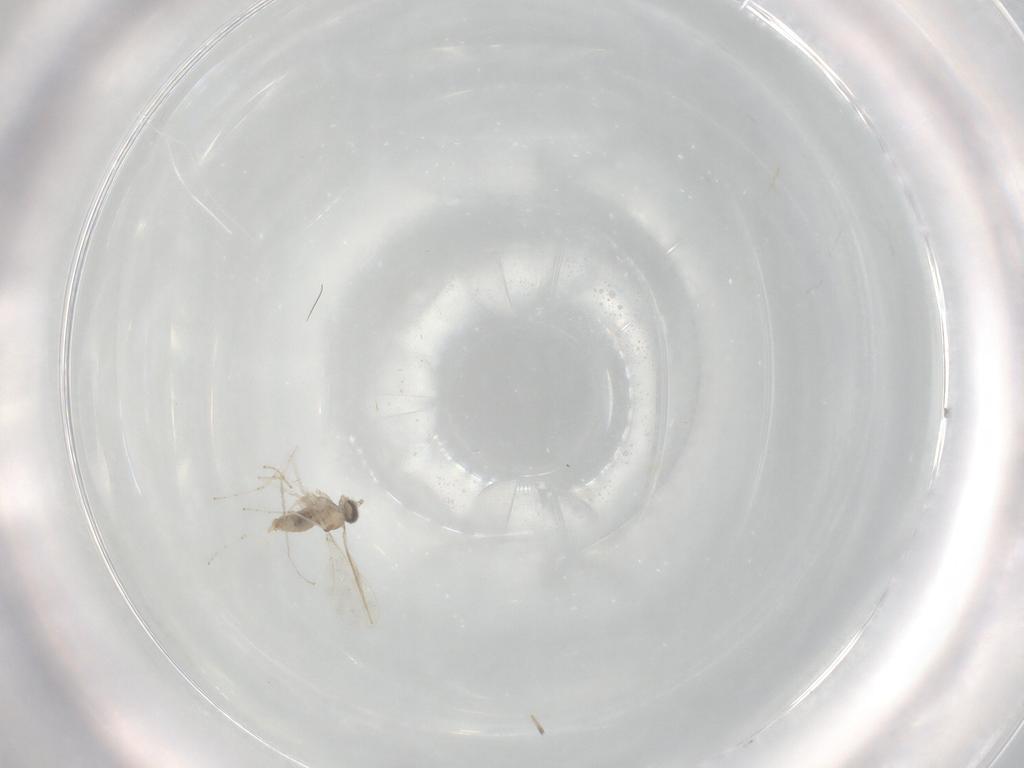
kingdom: Animalia
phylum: Arthropoda
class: Insecta
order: Diptera
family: Cecidomyiidae
